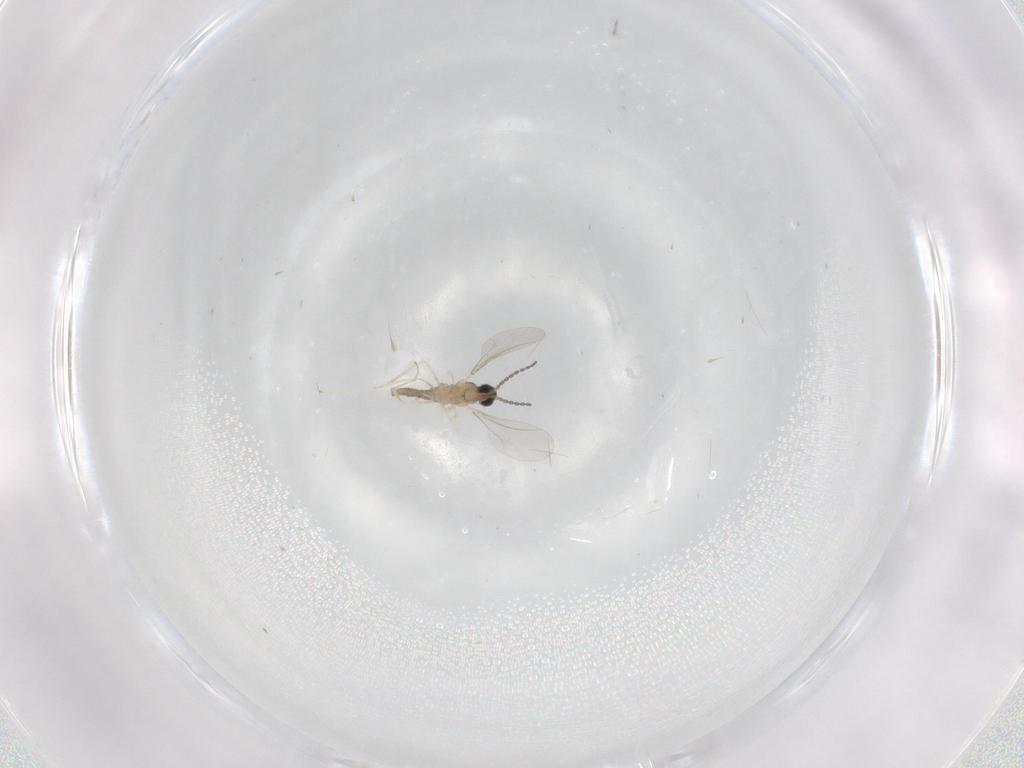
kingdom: Animalia
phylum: Arthropoda
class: Insecta
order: Diptera
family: Cecidomyiidae
